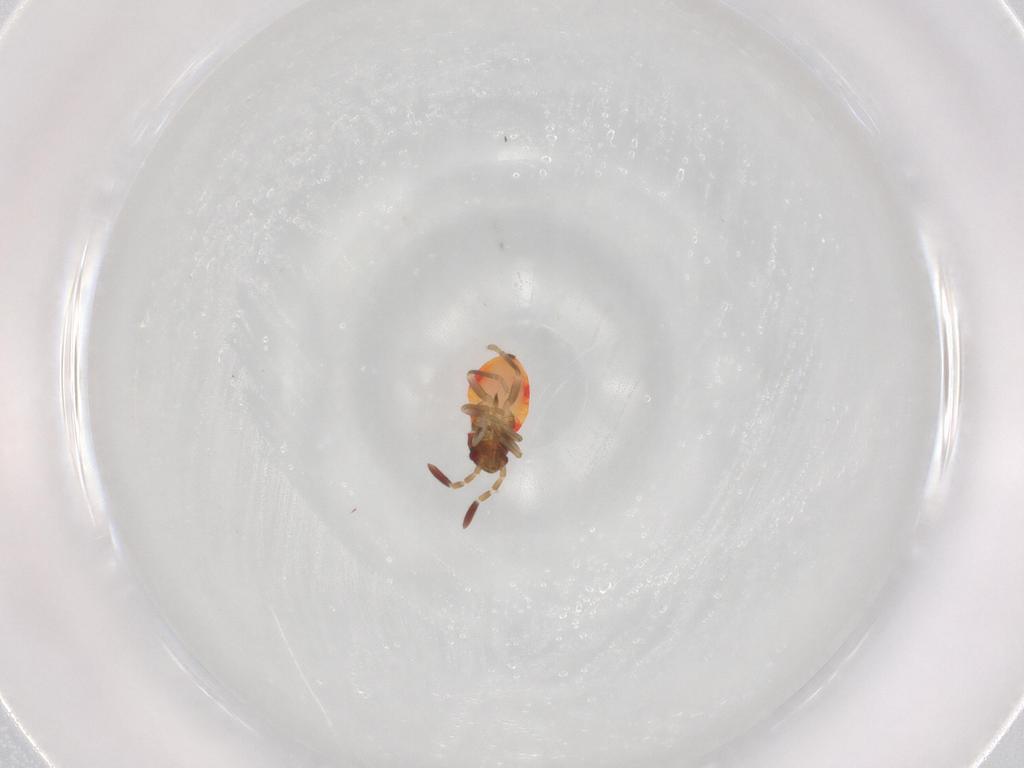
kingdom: Animalia
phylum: Arthropoda
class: Insecta
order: Hemiptera
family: Rhyparochromidae
